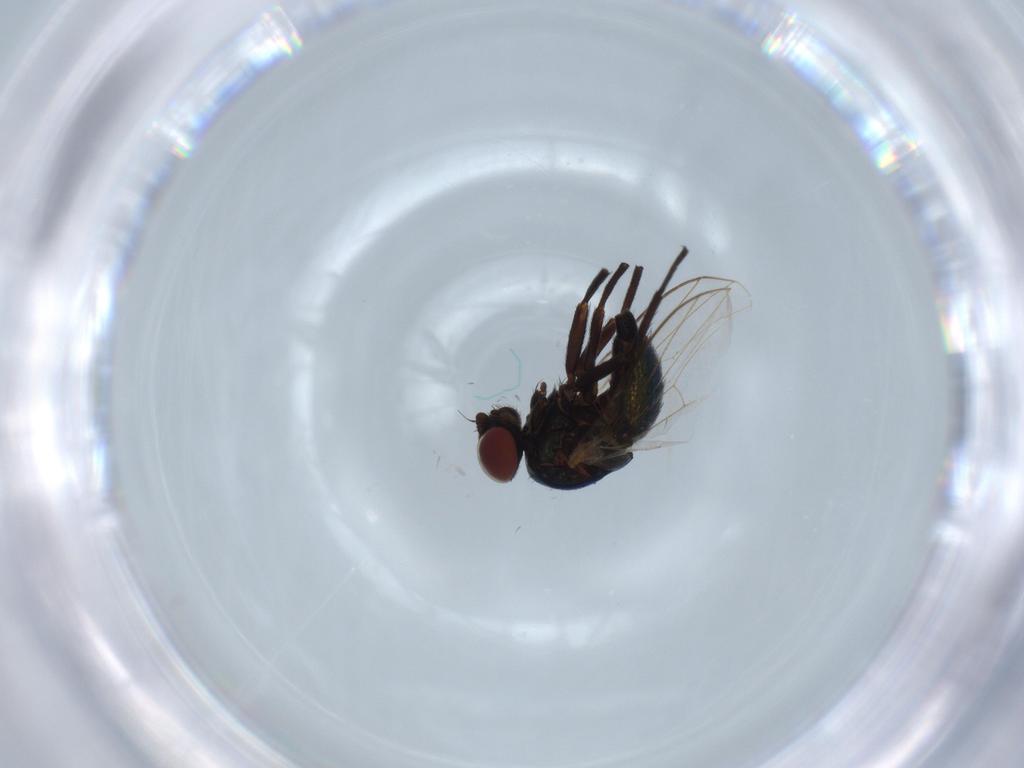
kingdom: Animalia
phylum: Arthropoda
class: Insecta
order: Diptera
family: Agromyzidae
